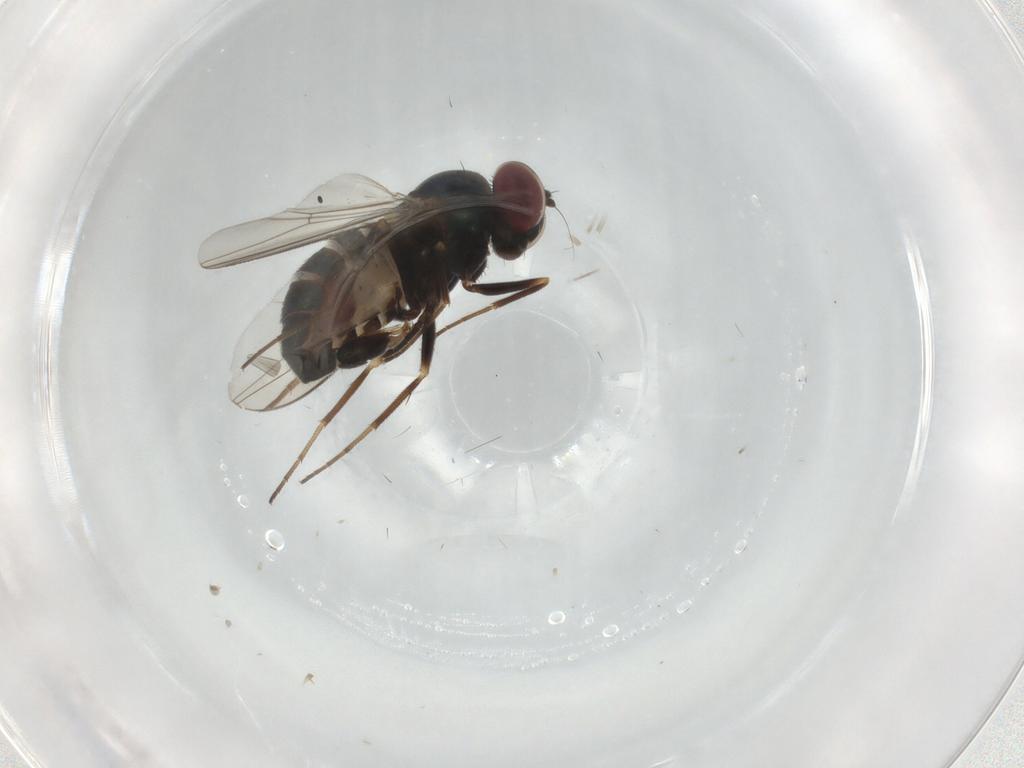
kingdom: Animalia
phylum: Arthropoda
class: Insecta
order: Diptera
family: Dolichopodidae
